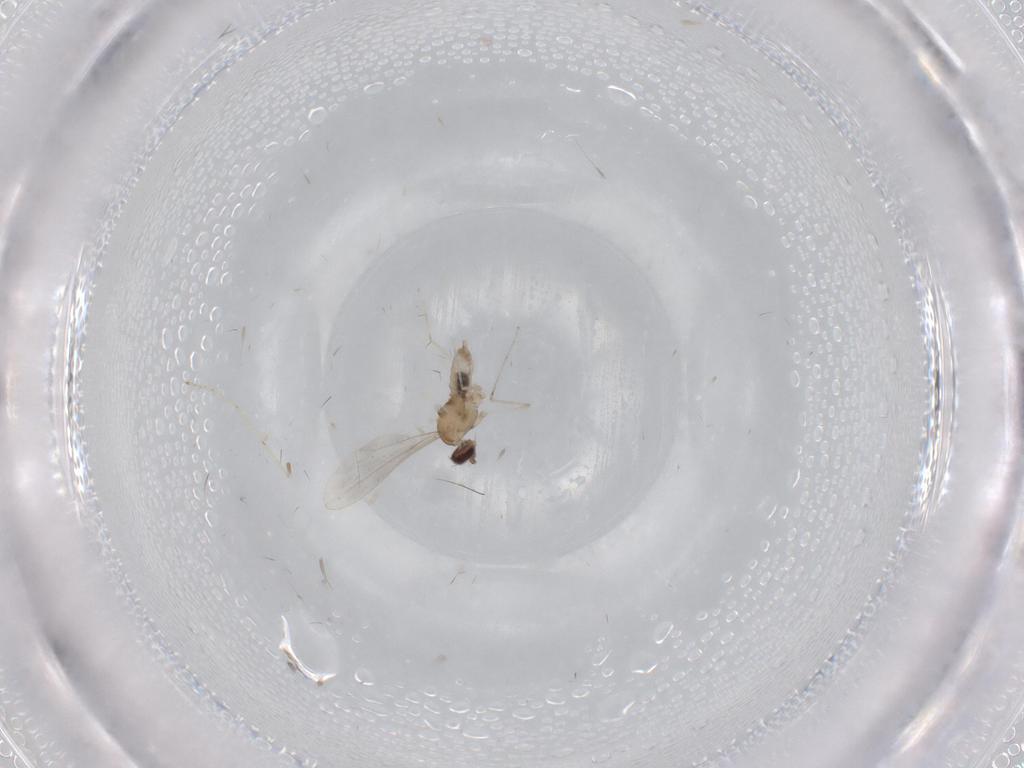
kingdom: Animalia
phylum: Arthropoda
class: Insecta
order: Diptera
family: Cecidomyiidae
